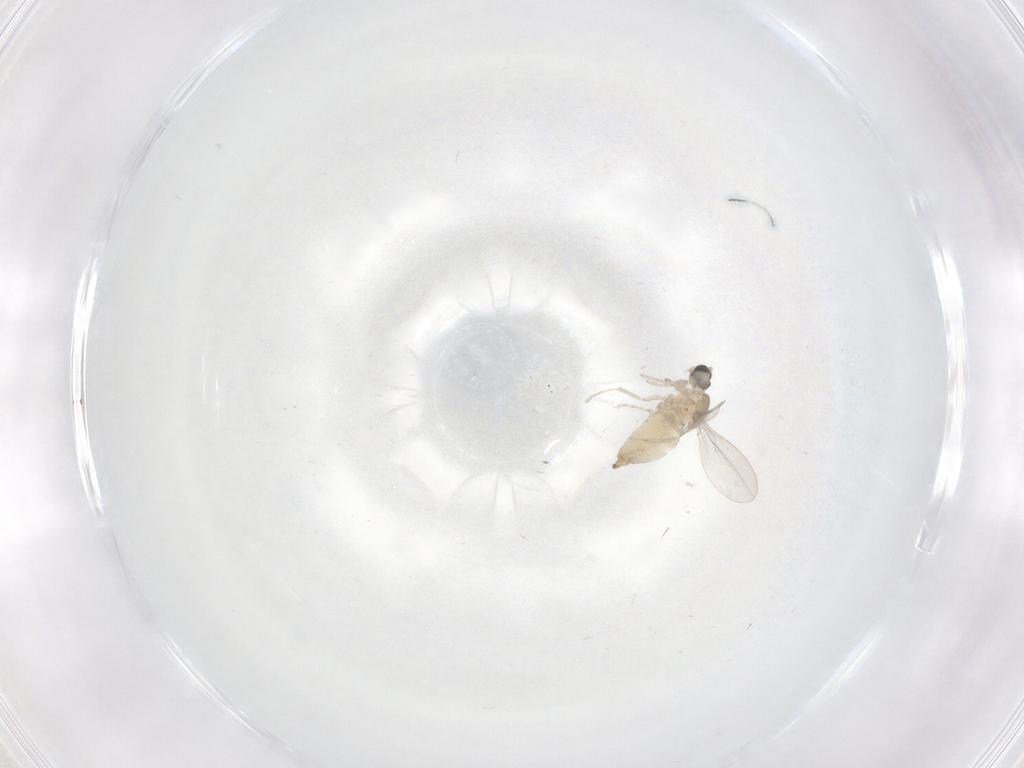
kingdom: Animalia
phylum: Arthropoda
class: Insecta
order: Diptera
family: Cecidomyiidae
